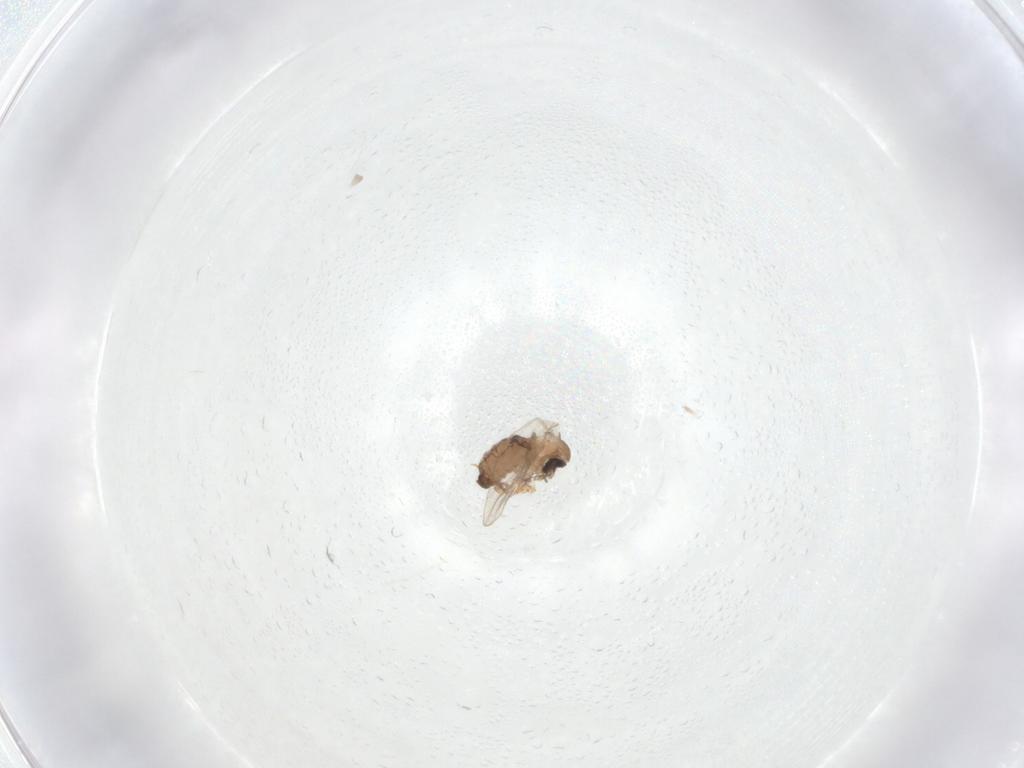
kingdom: Animalia
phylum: Arthropoda
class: Insecta
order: Diptera
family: Psychodidae
